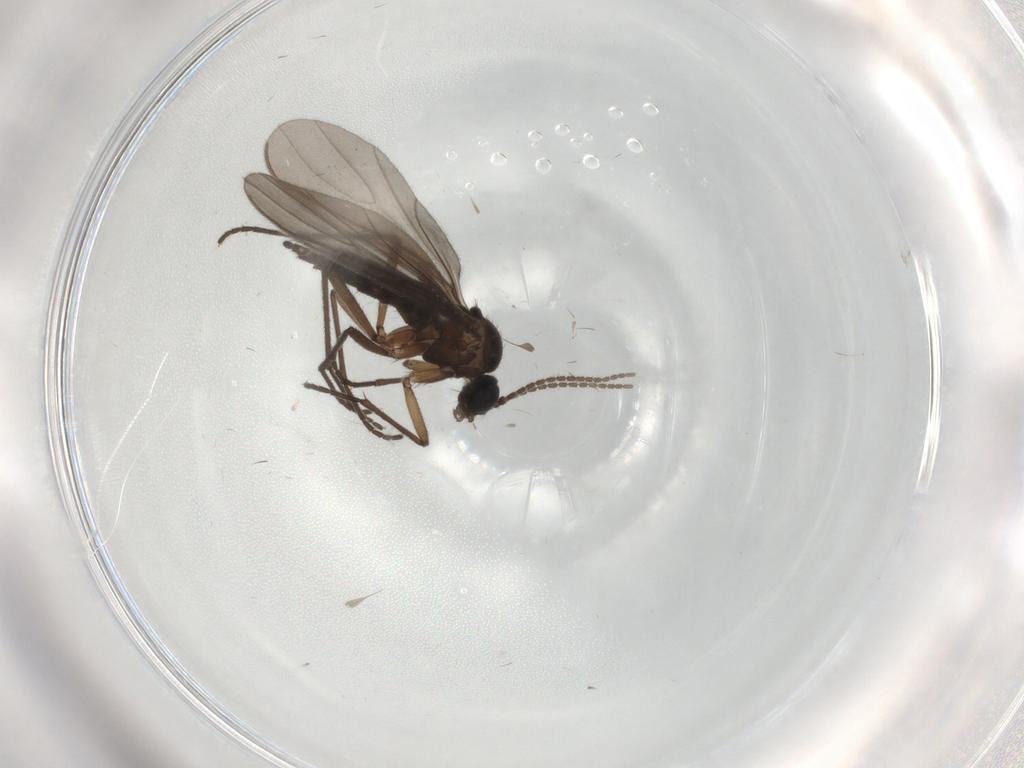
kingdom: Animalia
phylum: Arthropoda
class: Insecta
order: Diptera
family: Sciaridae
